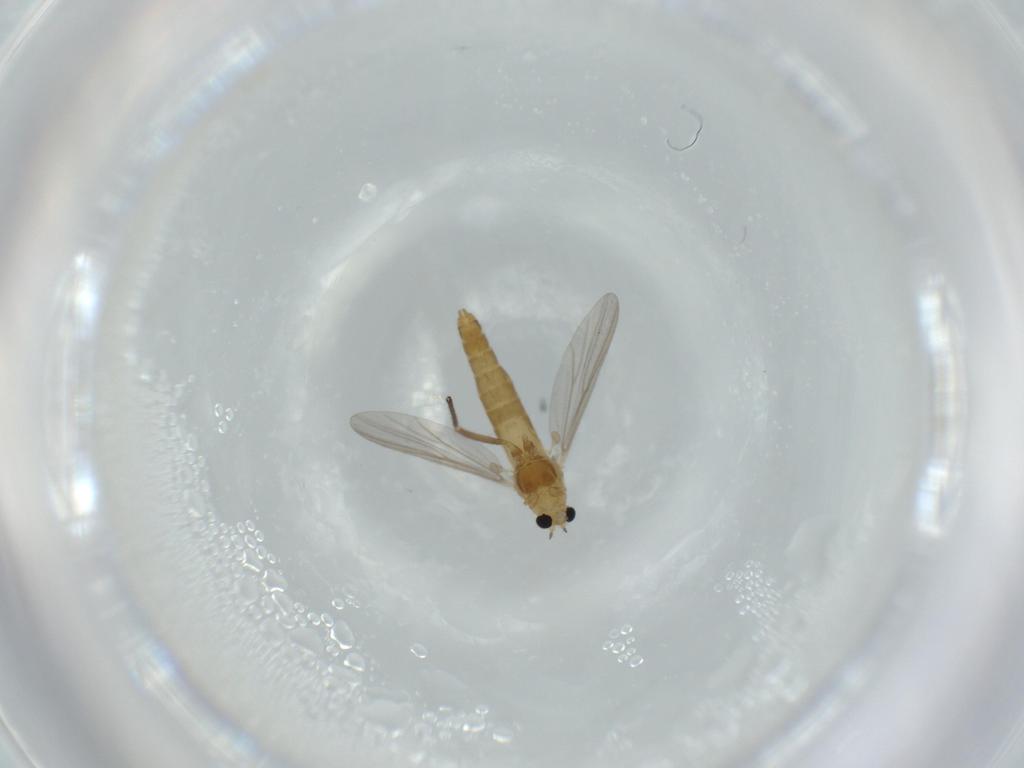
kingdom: Animalia
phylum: Arthropoda
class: Insecta
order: Diptera
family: Chironomidae
